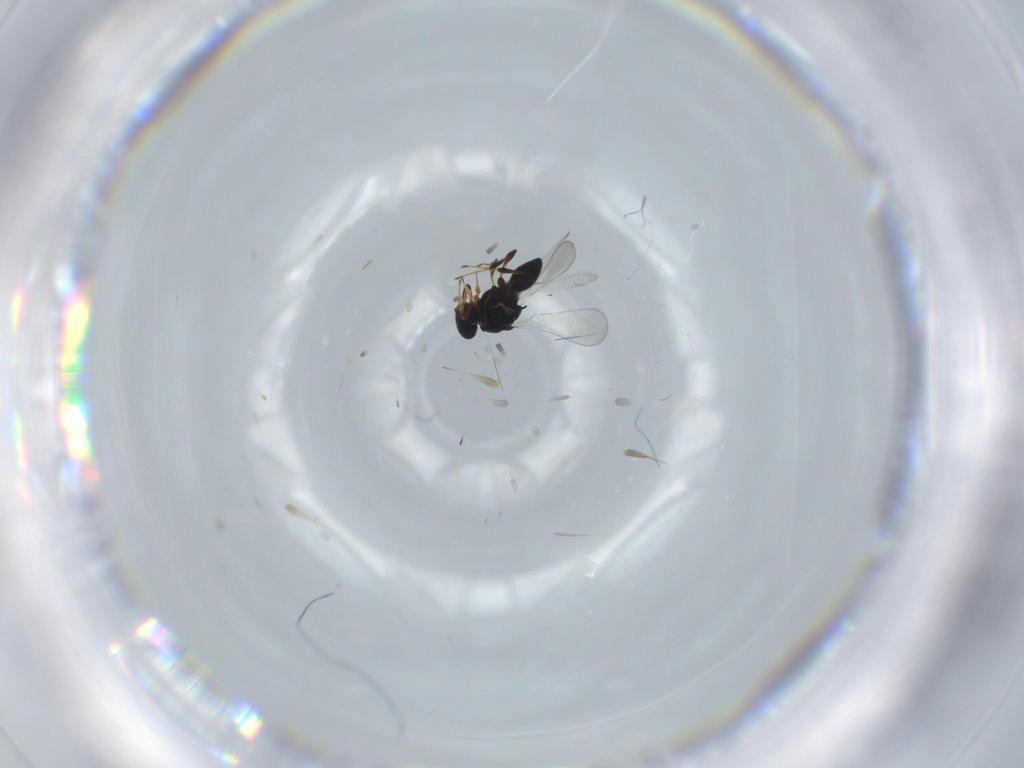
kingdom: Animalia
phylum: Arthropoda
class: Insecta
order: Hymenoptera
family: Platygastridae
